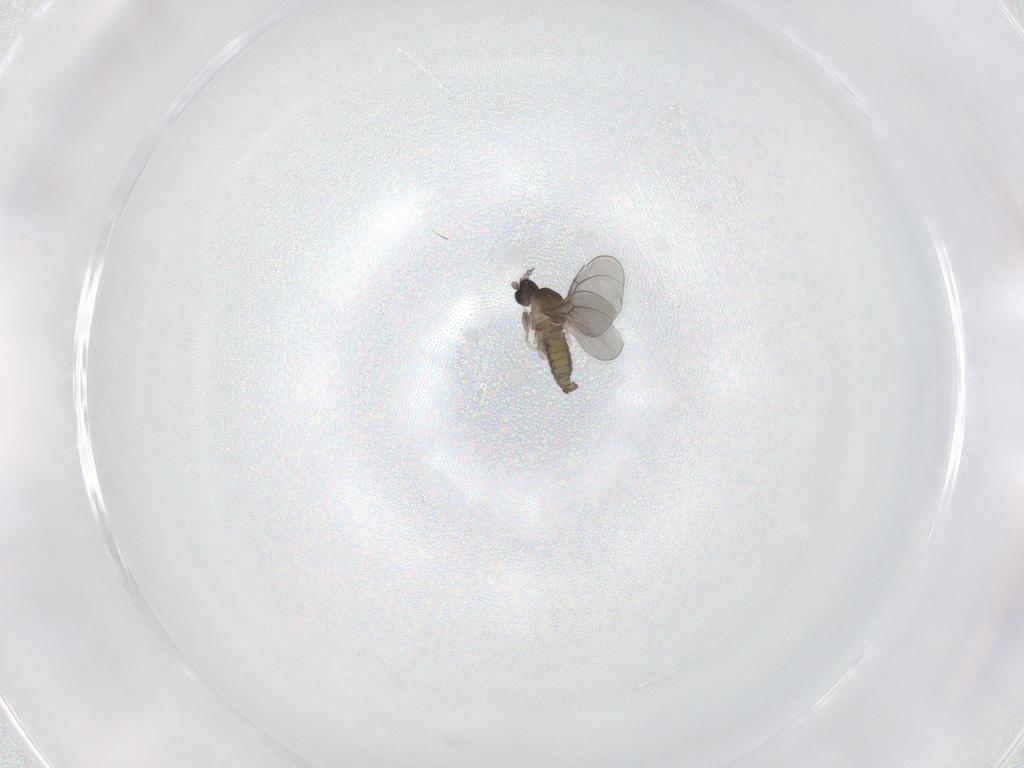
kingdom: Animalia
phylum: Arthropoda
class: Insecta
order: Diptera
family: Cecidomyiidae
